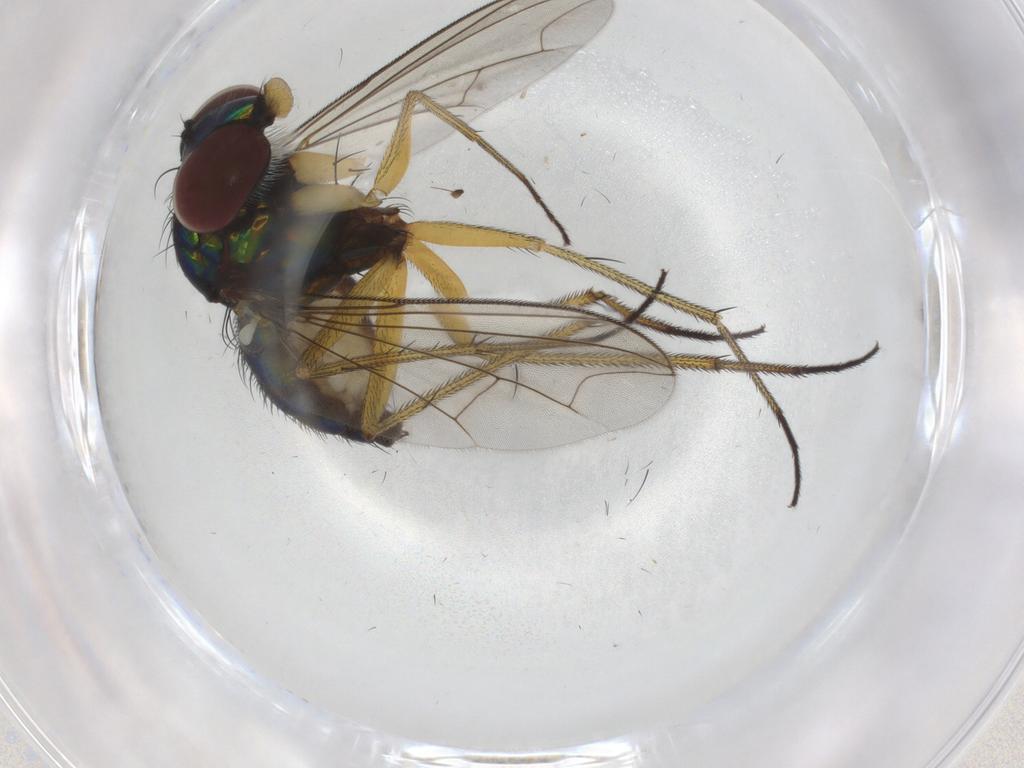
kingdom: Animalia
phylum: Arthropoda
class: Insecta
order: Diptera
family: Dolichopodidae
